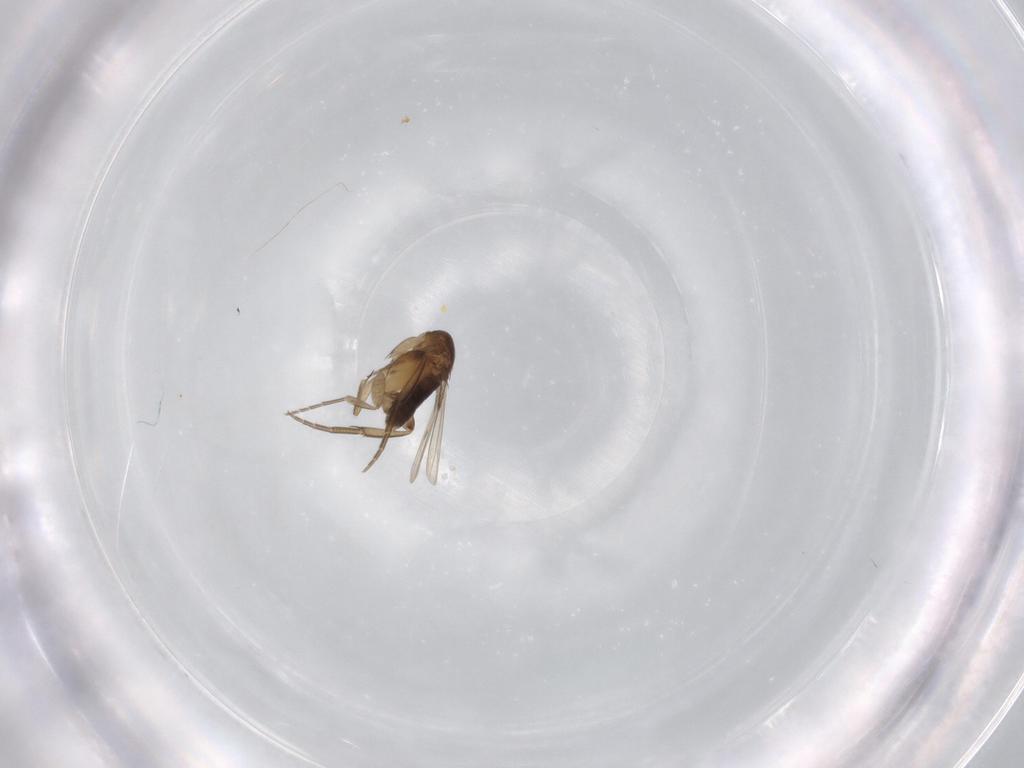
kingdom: Animalia
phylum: Arthropoda
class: Insecta
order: Diptera
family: Phoridae
